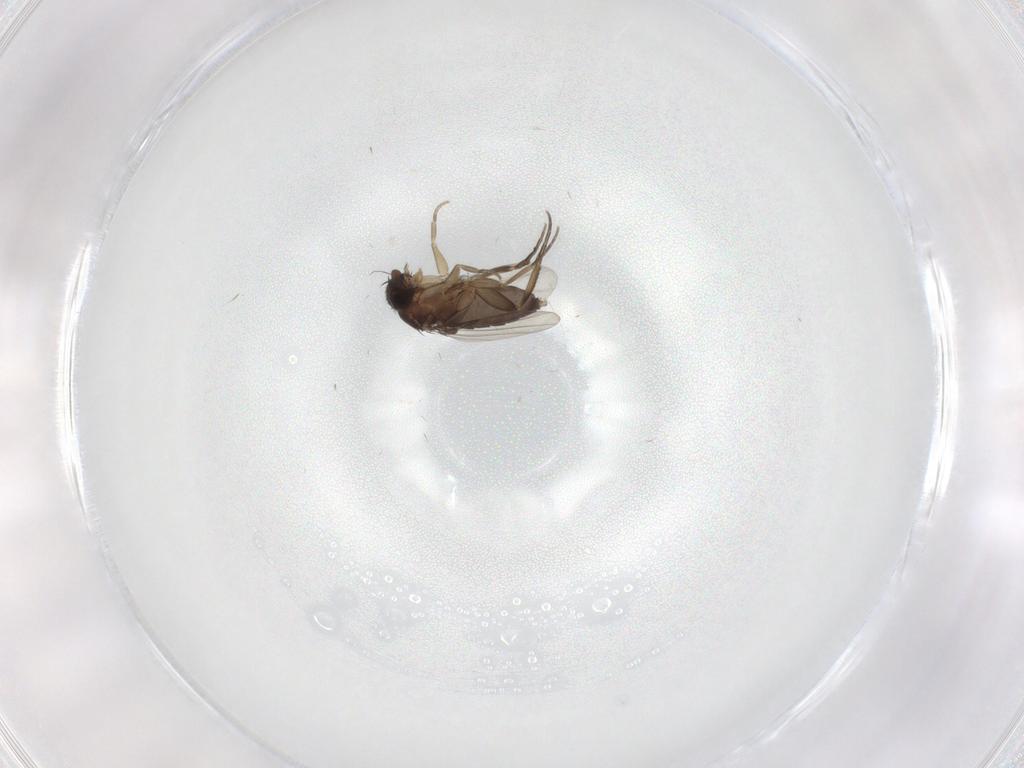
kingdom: Animalia
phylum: Arthropoda
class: Insecta
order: Diptera
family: Phoridae
